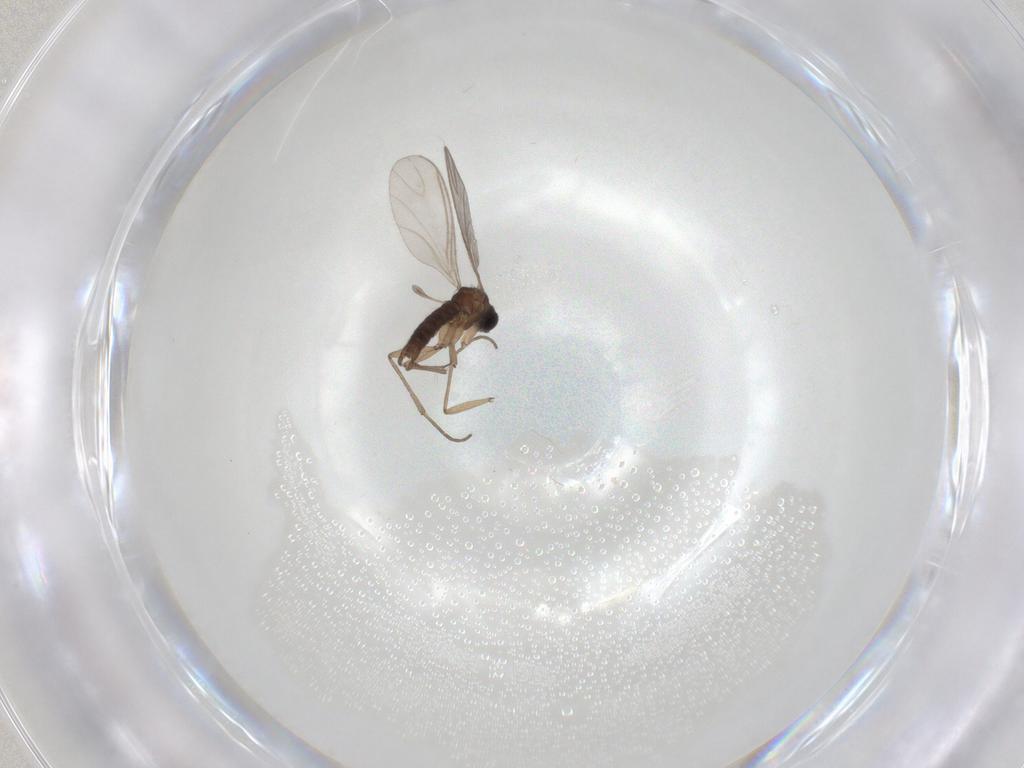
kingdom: Animalia
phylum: Arthropoda
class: Insecta
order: Diptera
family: Sciaridae
